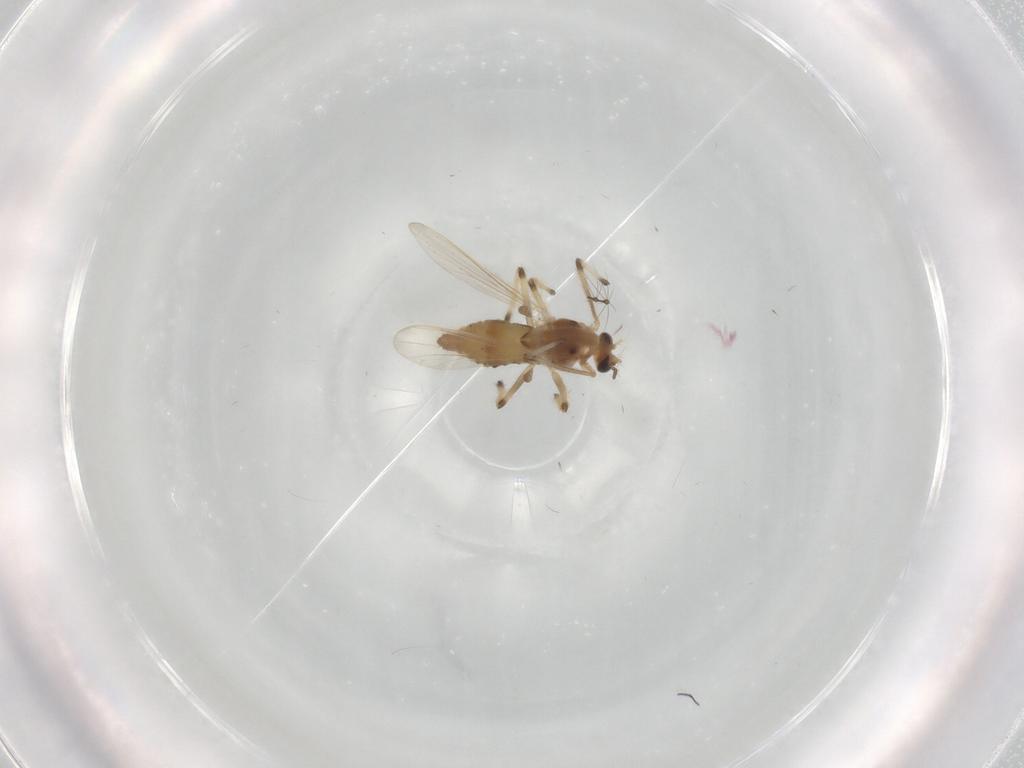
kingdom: Animalia
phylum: Arthropoda
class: Insecta
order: Diptera
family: Chironomidae
